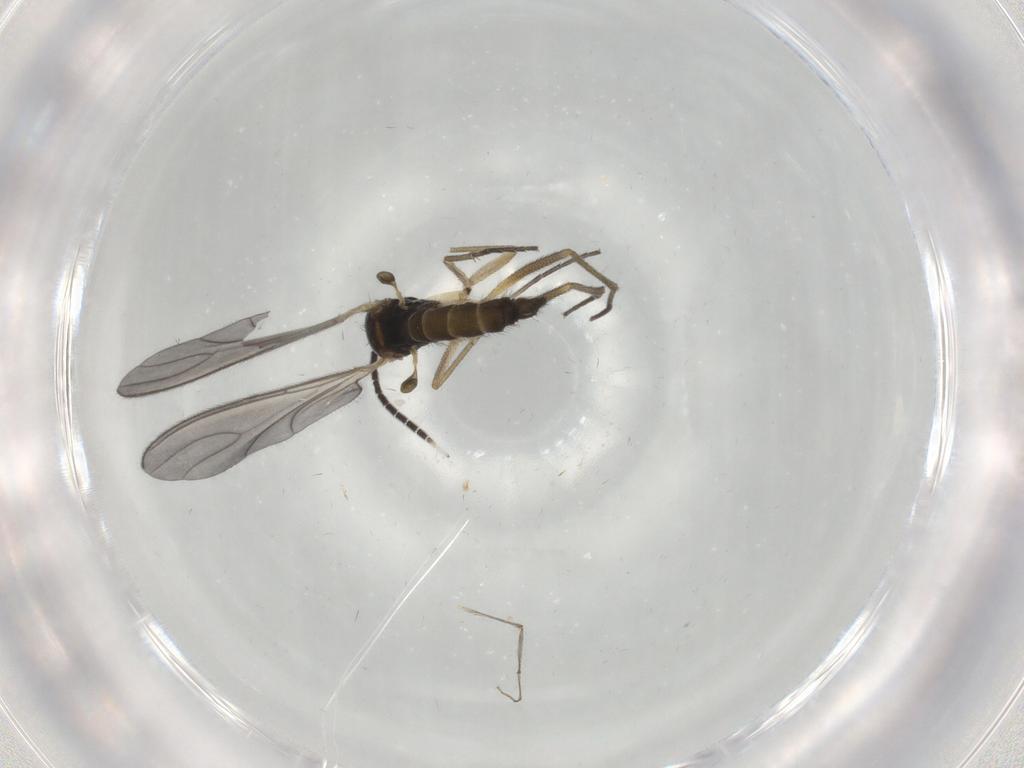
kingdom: Animalia
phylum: Arthropoda
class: Insecta
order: Diptera
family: Sciaridae
